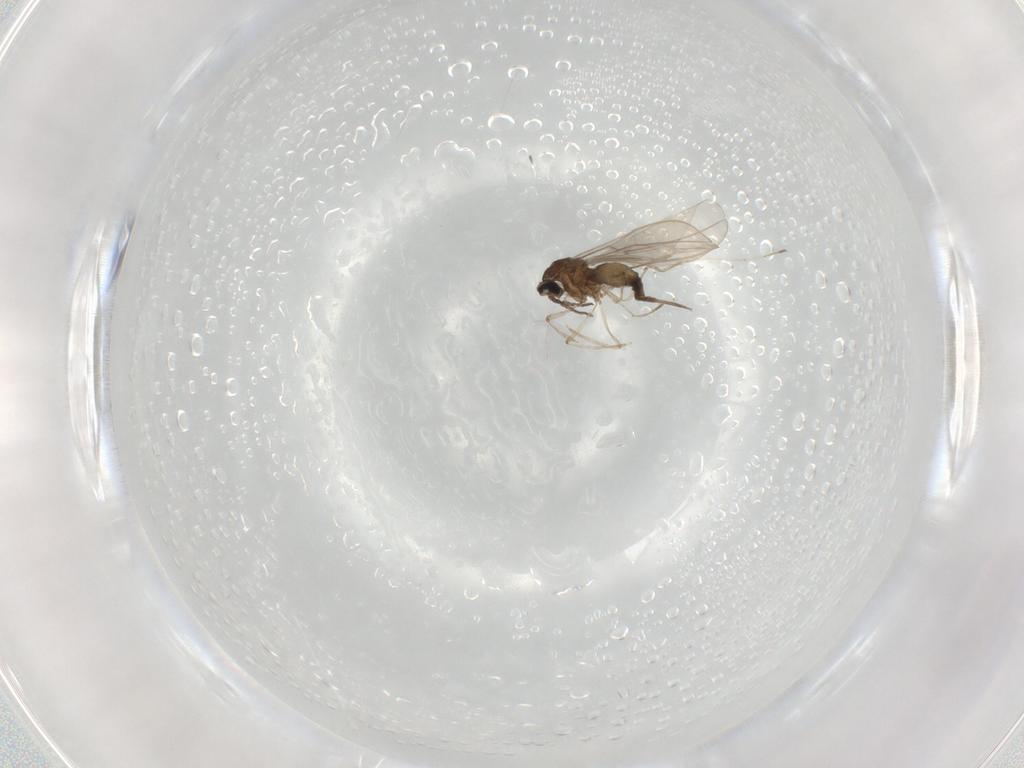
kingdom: Animalia
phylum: Arthropoda
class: Insecta
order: Diptera
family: Cecidomyiidae
